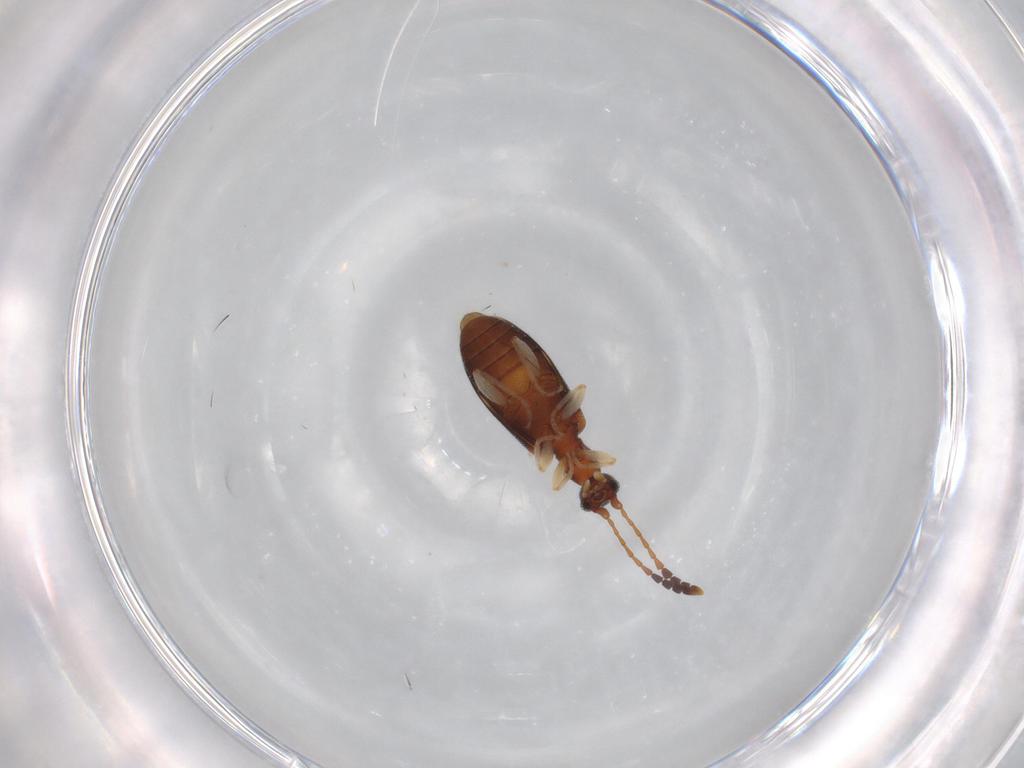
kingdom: Animalia
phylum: Arthropoda
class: Insecta
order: Coleoptera
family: Anthicidae
